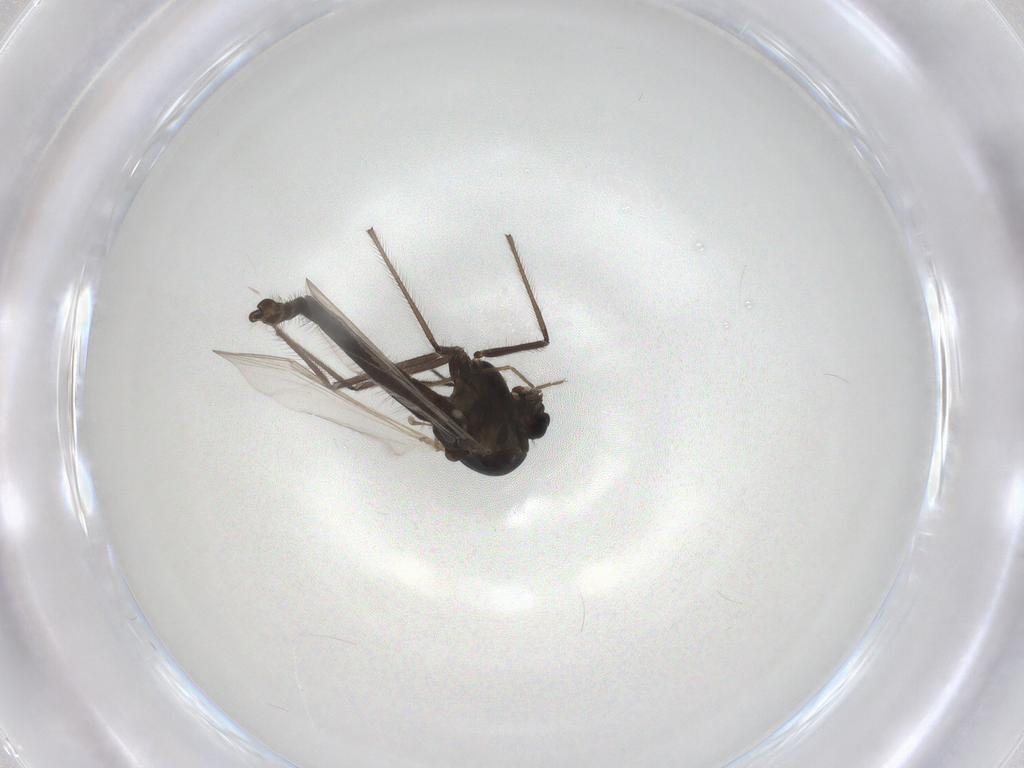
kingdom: Animalia
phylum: Arthropoda
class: Insecta
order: Diptera
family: Chironomidae
